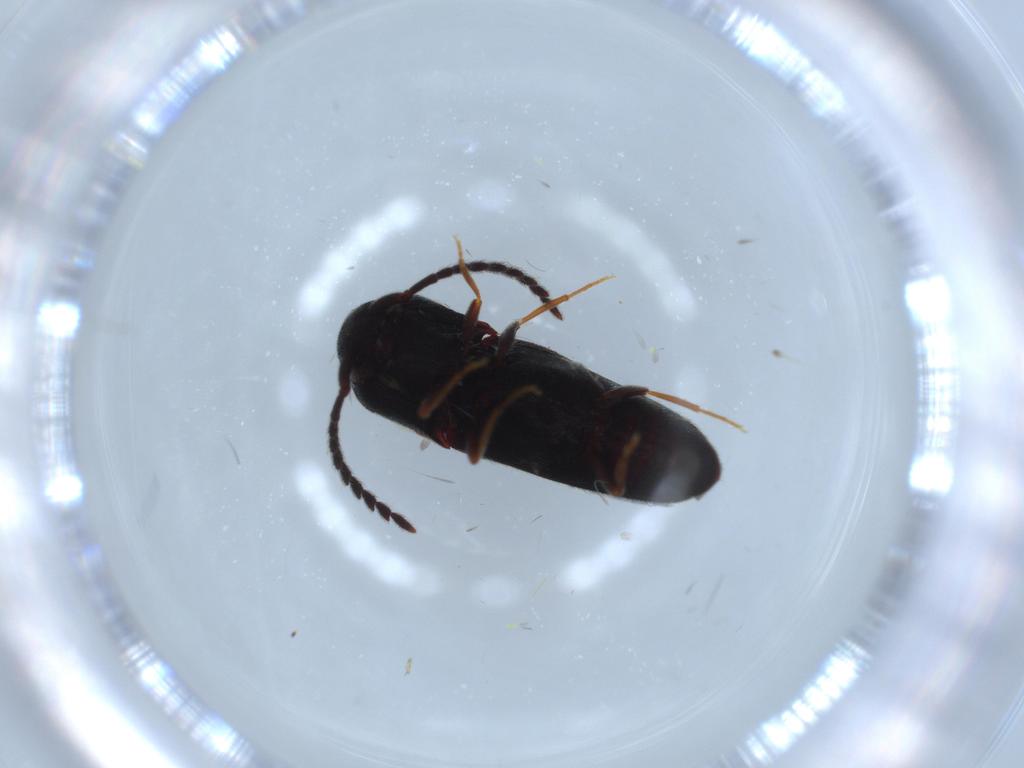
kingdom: Animalia
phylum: Arthropoda
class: Insecta
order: Coleoptera
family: Eucnemidae
